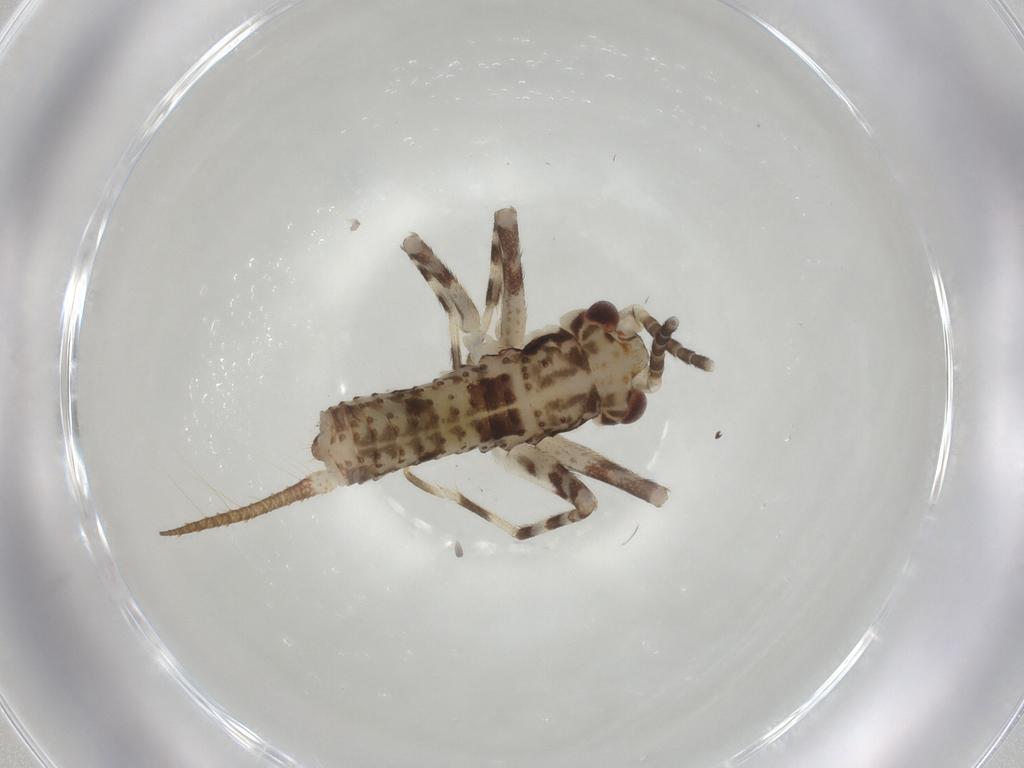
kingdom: Animalia
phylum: Arthropoda
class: Insecta
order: Orthoptera
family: Gryllidae
